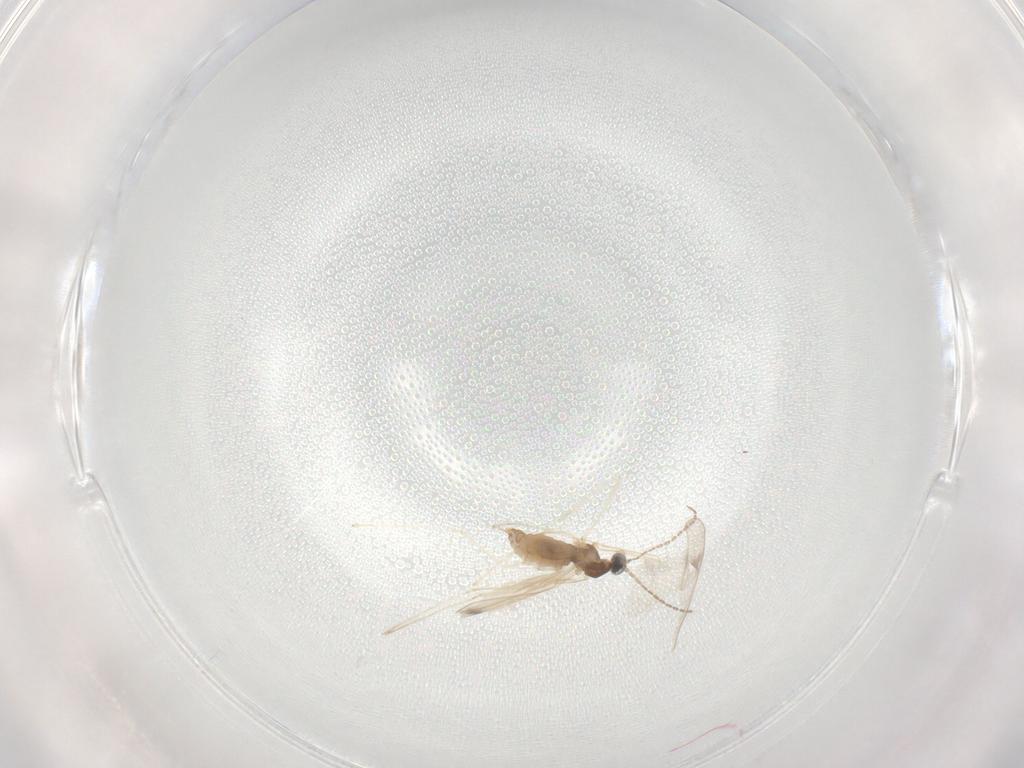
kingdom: Animalia
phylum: Arthropoda
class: Insecta
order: Diptera
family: Cecidomyiidae
